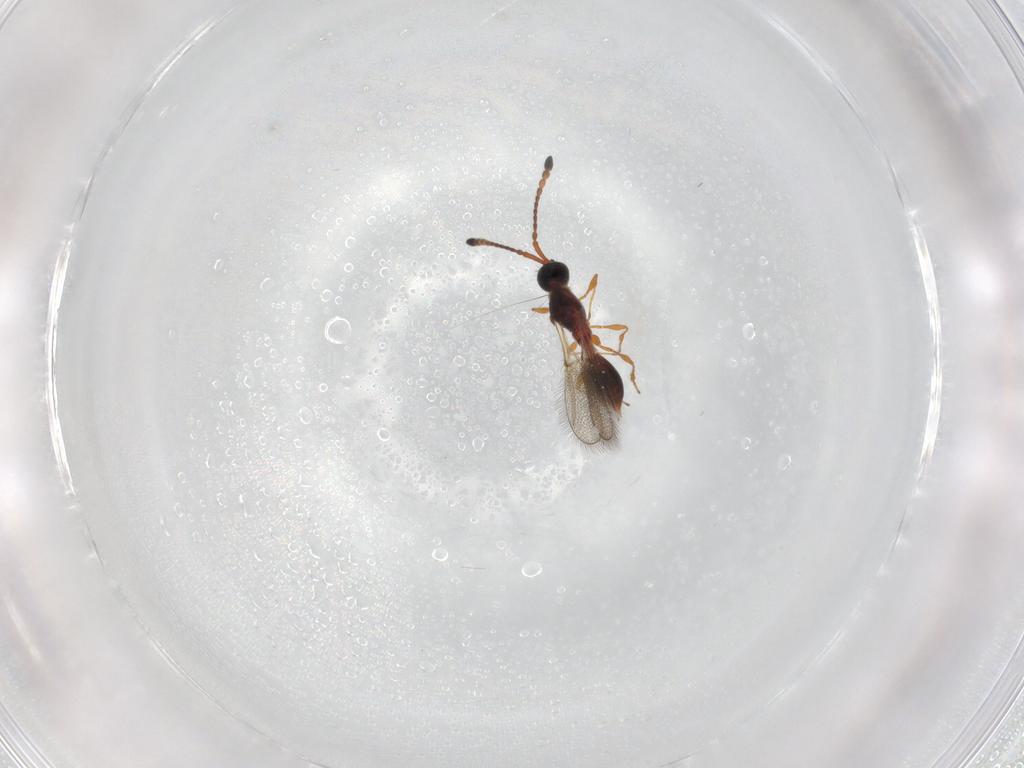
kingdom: Animalia
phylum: Arthropoda
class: Insecta
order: Hymenoptera
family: Diapriidae
